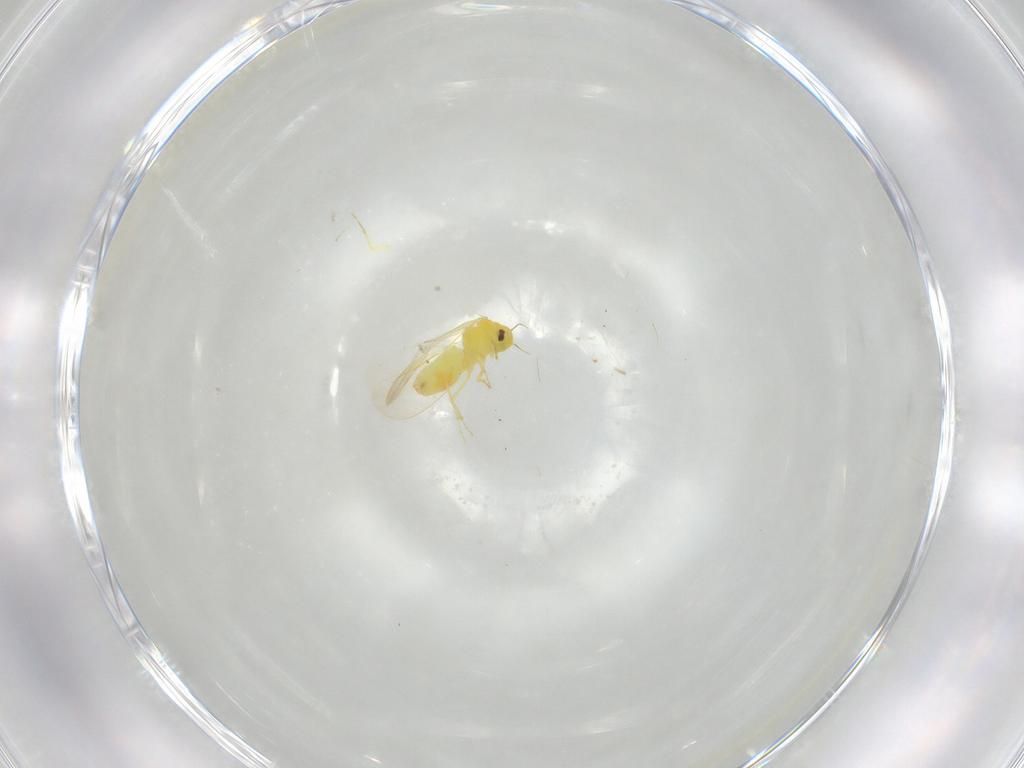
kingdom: Animalia
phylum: Arthropoda
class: Insecta
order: Hemiptera
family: Aleyrodidae
